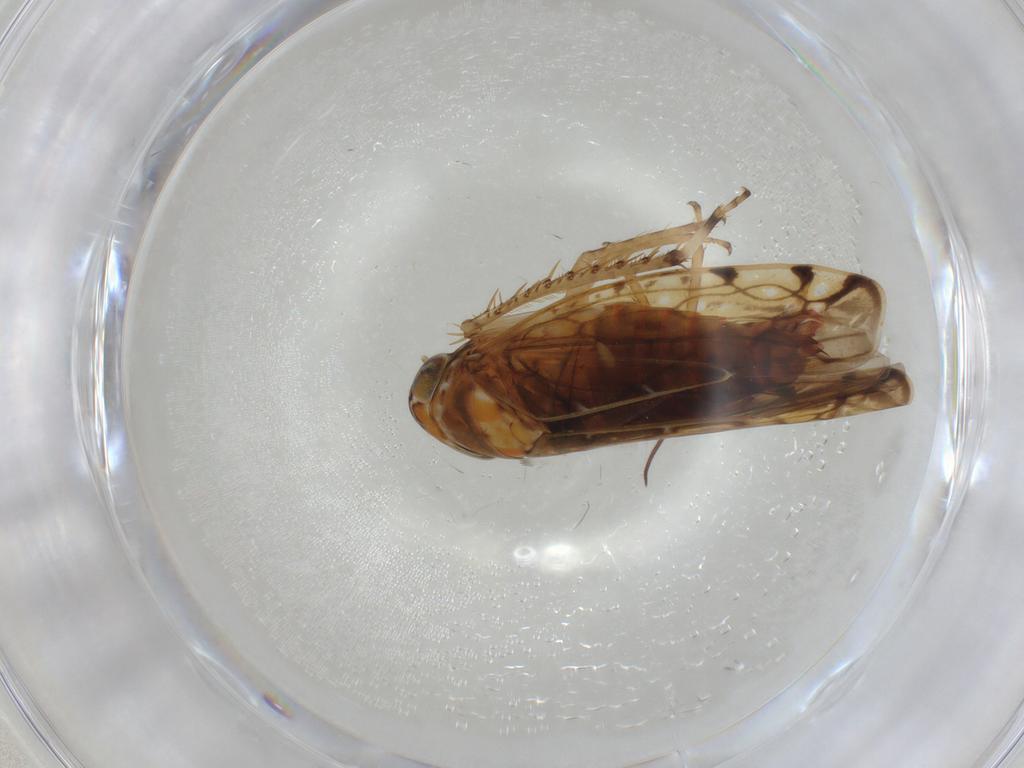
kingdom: Animalia
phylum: Arthropoda
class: Insecta
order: Hemiptera
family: Cicadellidae
